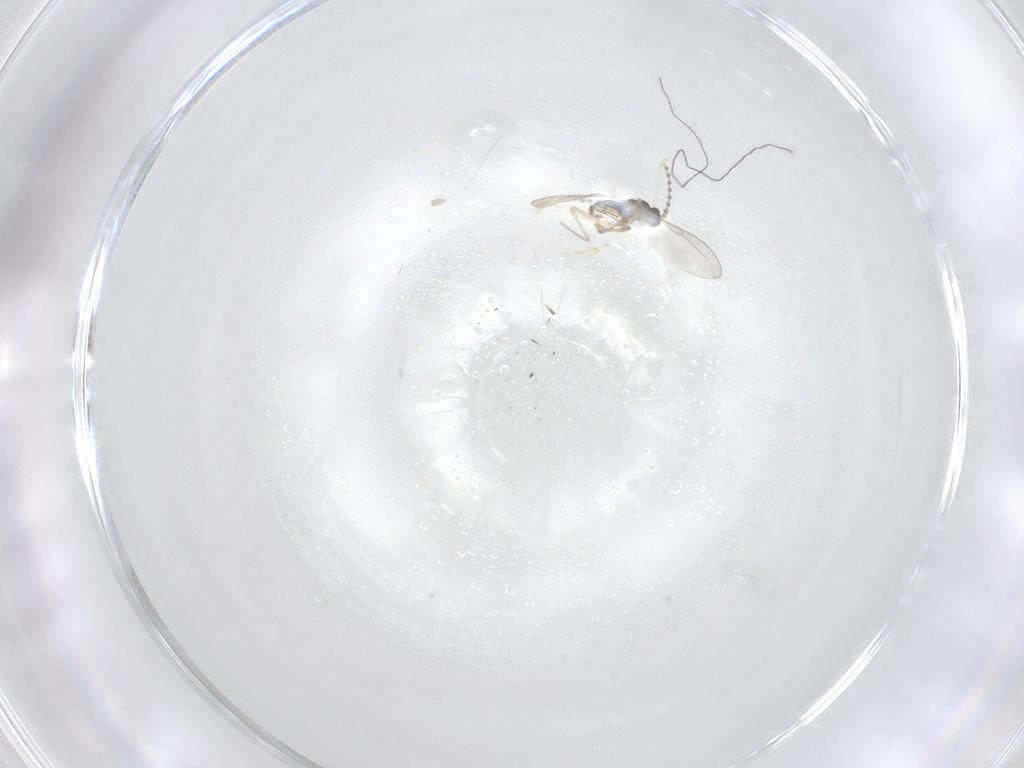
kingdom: Animalia
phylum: Arthropoda
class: Insecta
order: Diptera
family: Cecidomyiidae
